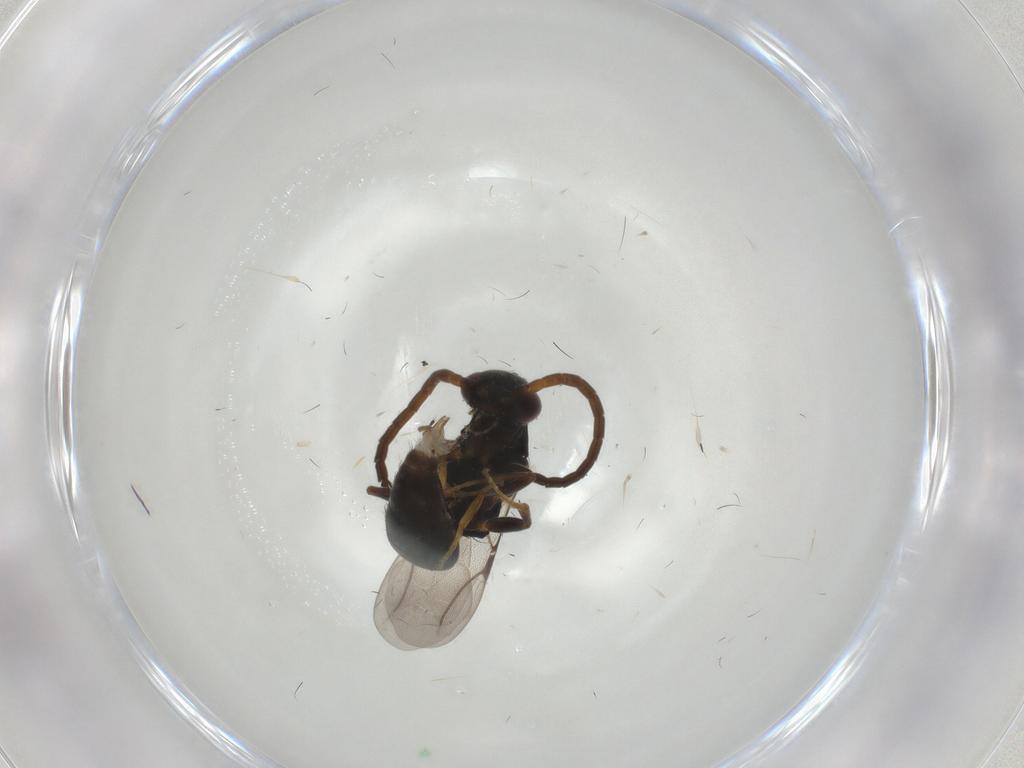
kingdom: Animalia
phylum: Arthropoda
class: Insecta
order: Hymenoptera
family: Bethylidae
